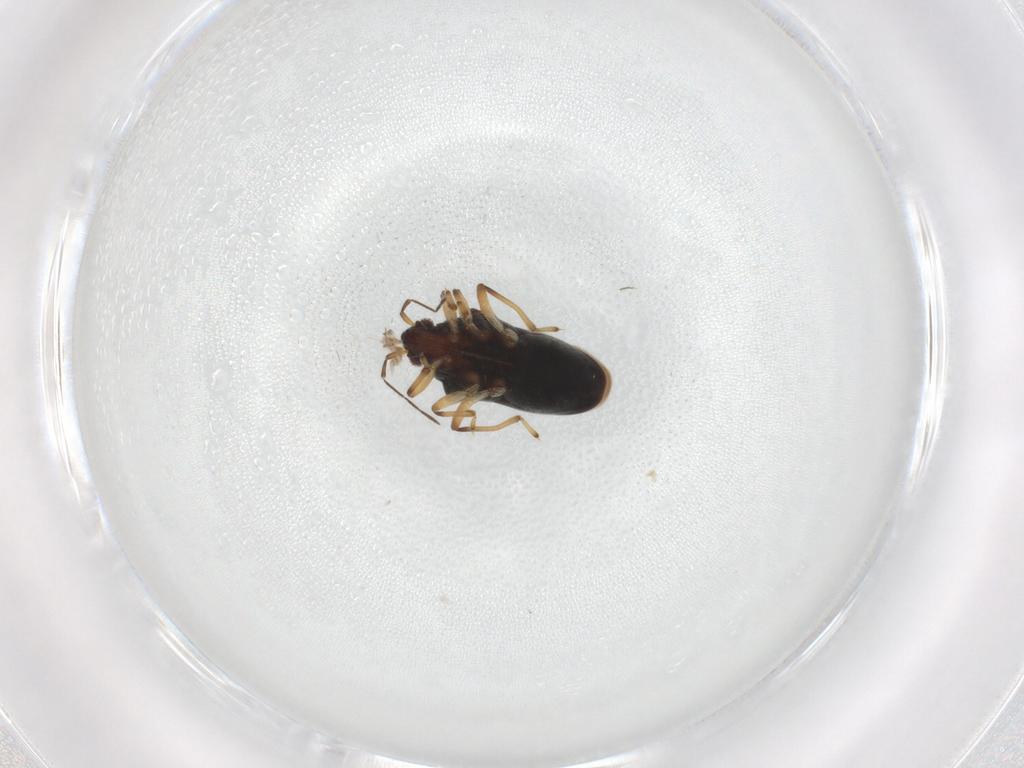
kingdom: Animalia
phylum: Arthropoda
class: Insecta
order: Hemiptera
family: Hebridae
